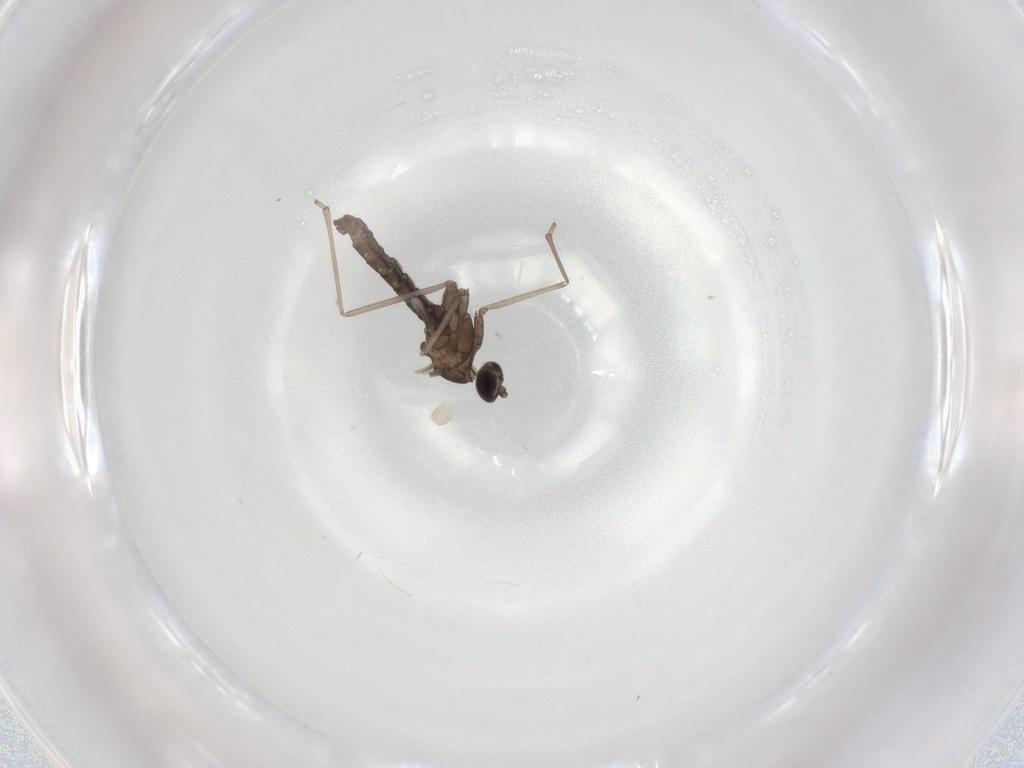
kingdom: Animalia
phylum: Arthropoda
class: Insecta
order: Diptera
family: Cecidomyiidae
